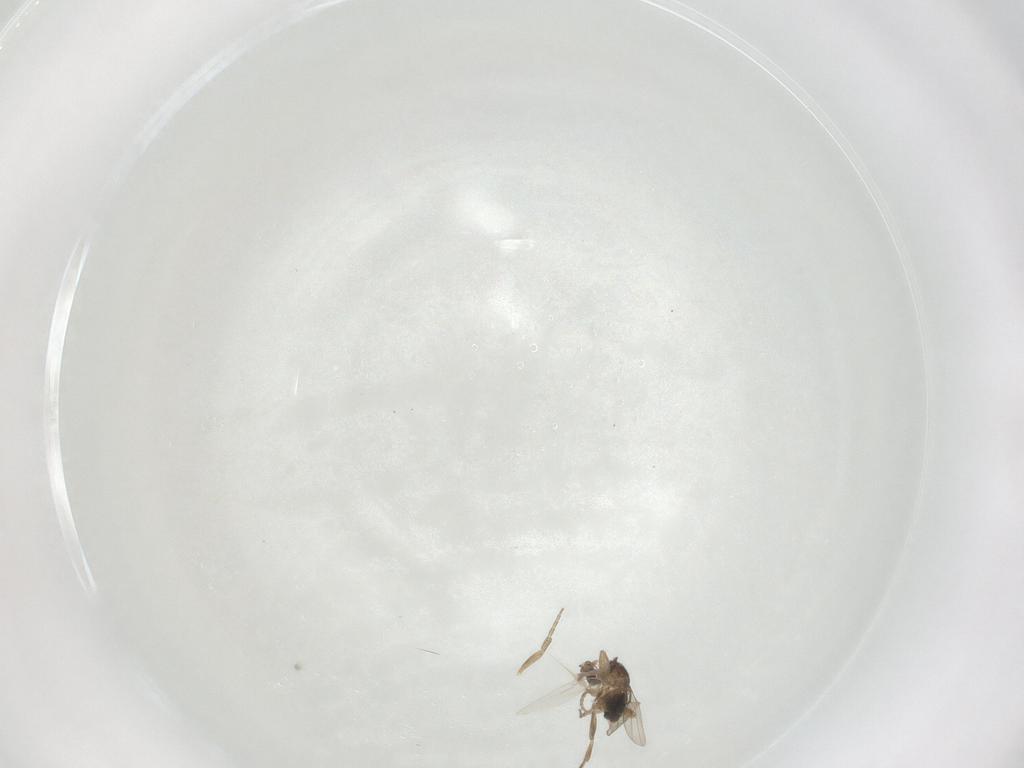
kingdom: Animalia
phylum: Arthropoda
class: Insecta
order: Diptera
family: Phoridae
